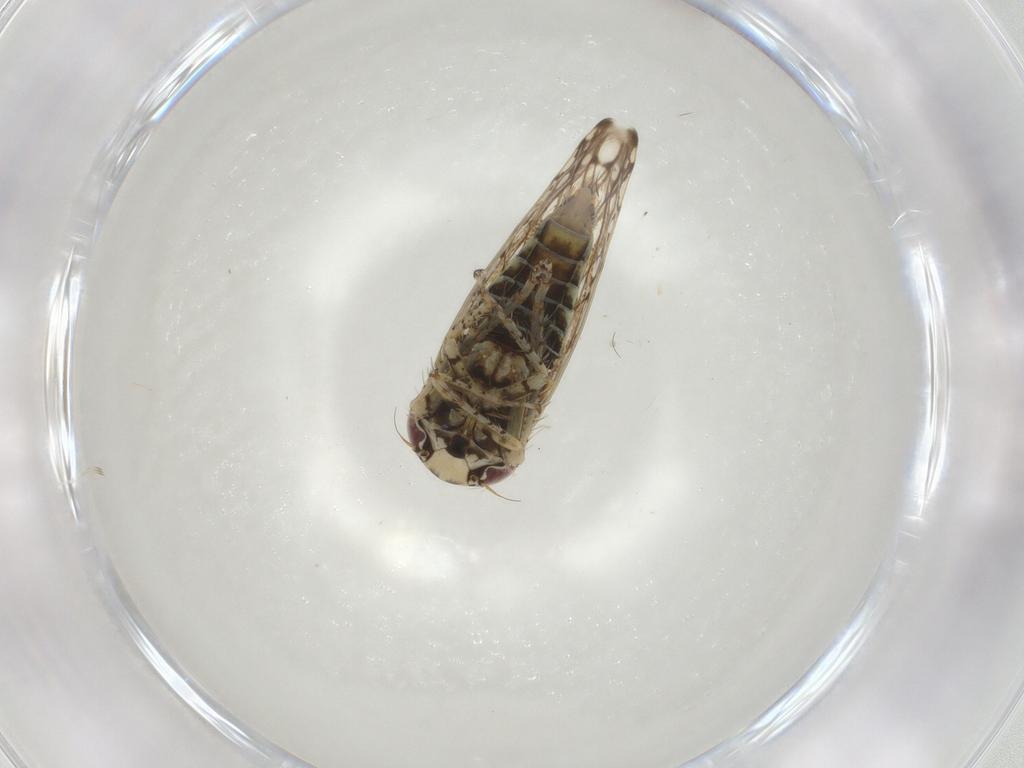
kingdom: Animalia
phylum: Arthropoda
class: Insecta
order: Hemiptera
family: Cicadellidae
